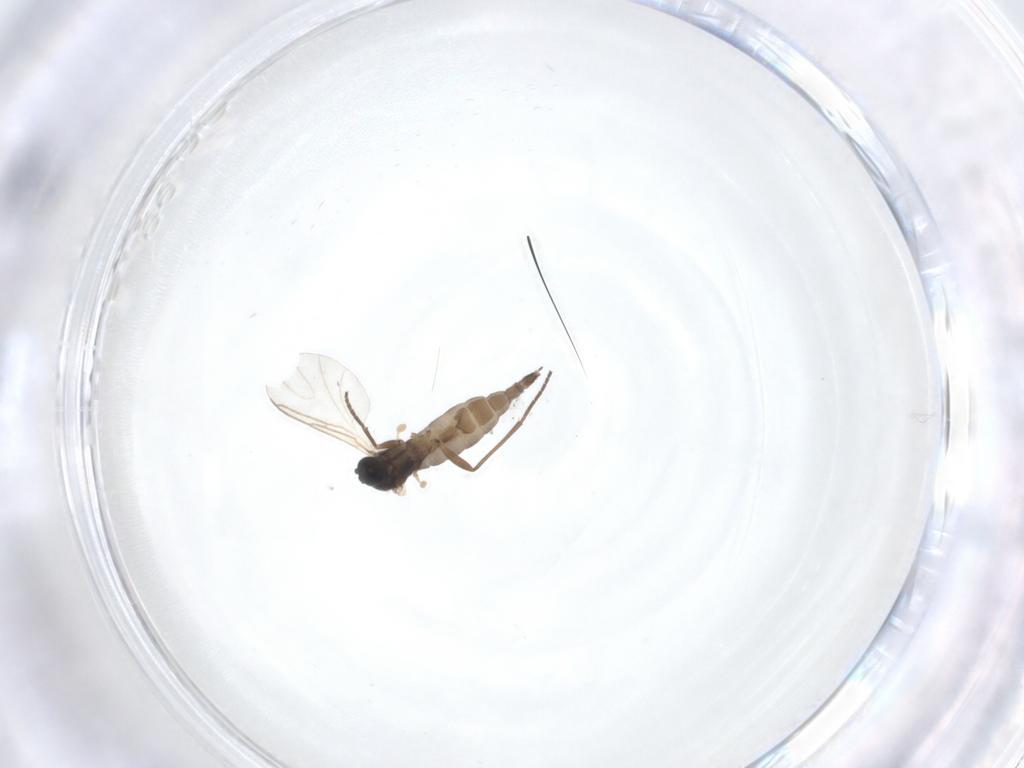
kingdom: Animalia
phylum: Arthropoda
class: Insecta
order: Diptera
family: Sciaridae
